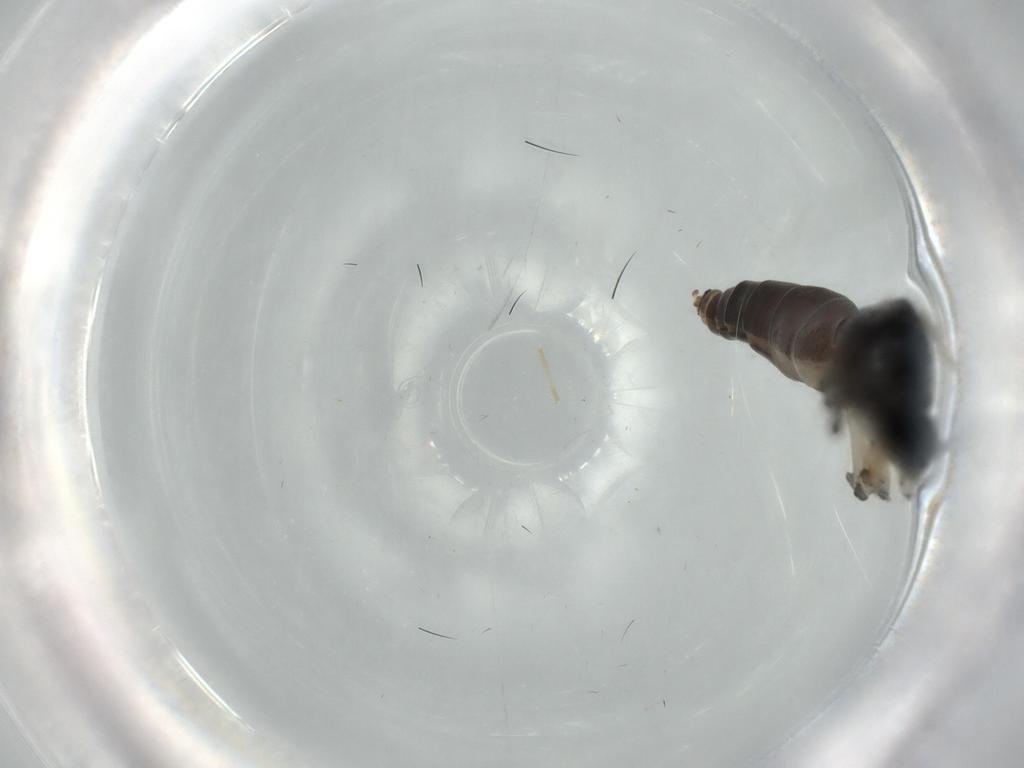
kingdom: Animalia
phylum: Arthropoda
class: Insecta
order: Diptera
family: Mycetophilidae
